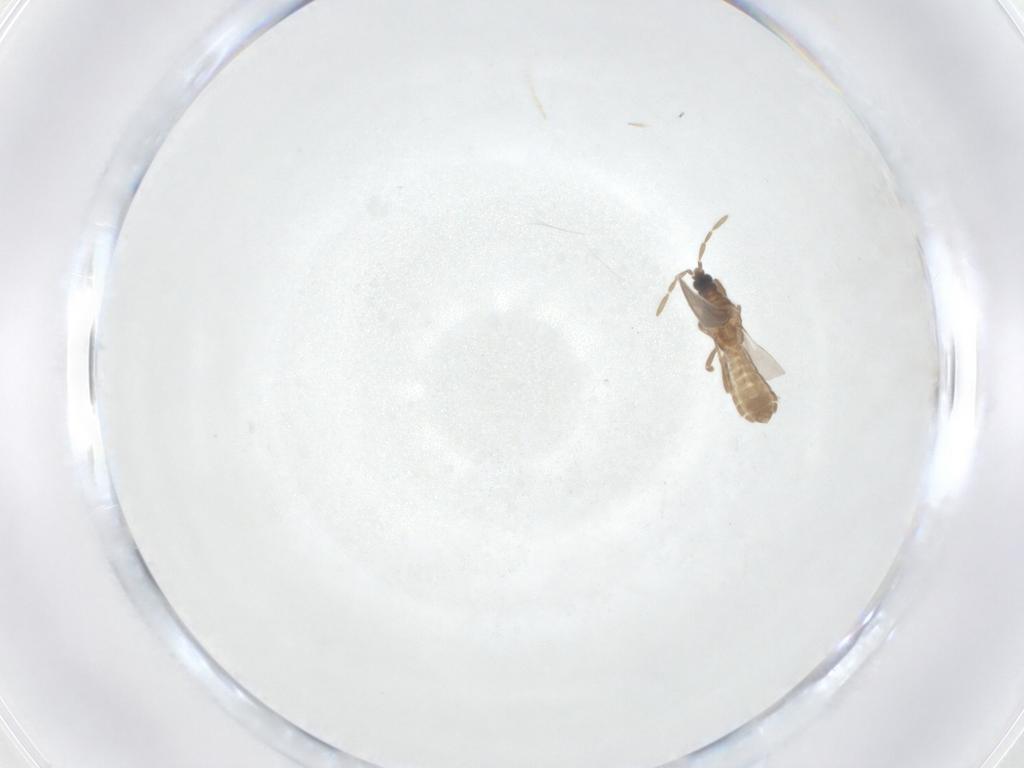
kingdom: Animalia
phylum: Arthropoda
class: Insecta
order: Hemiptera
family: Enicocephalidae
